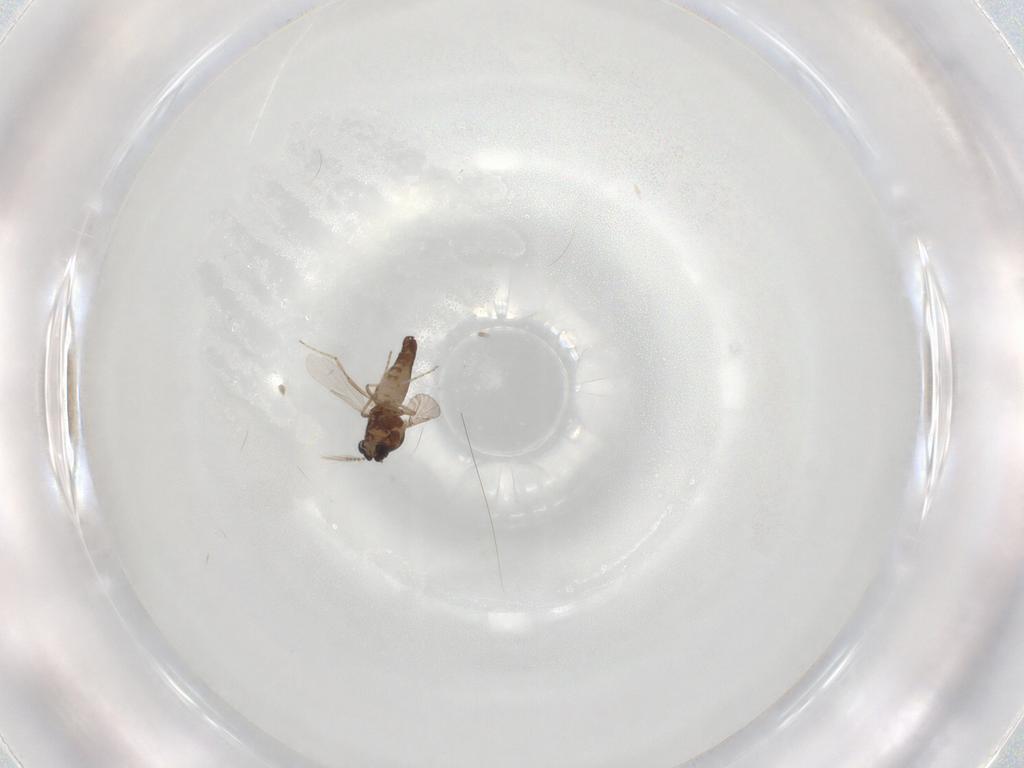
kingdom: Animalia
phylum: Arthropoda
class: Insecta
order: Diptera
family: Ceratopogonidae
